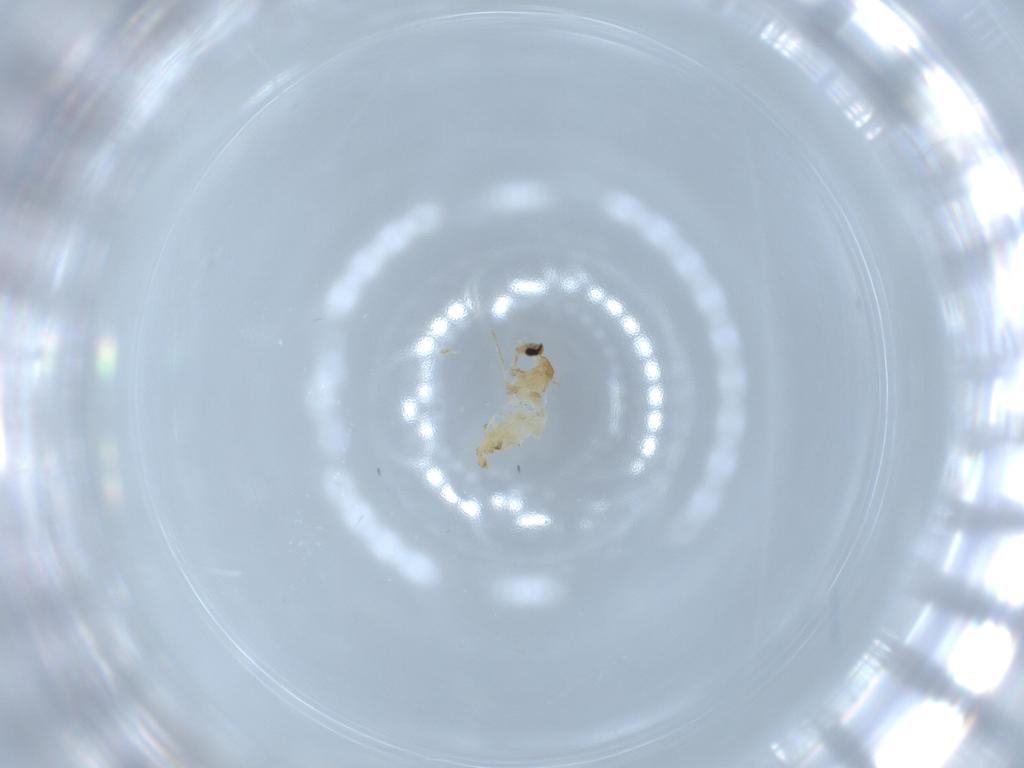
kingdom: Animalia
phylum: Arthropoda
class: Insecta
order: Diptera
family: Cecidomyiidae
